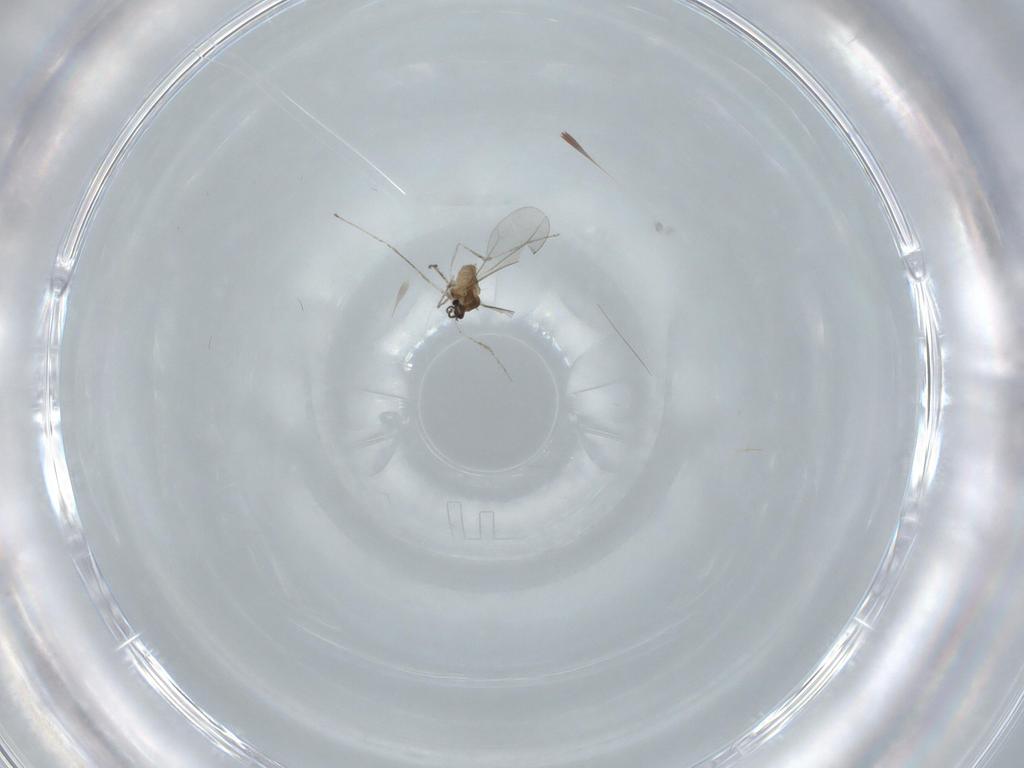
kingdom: Animalia
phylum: Arthropoda
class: Insecta
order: Diptera
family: Cecidomyiidae
